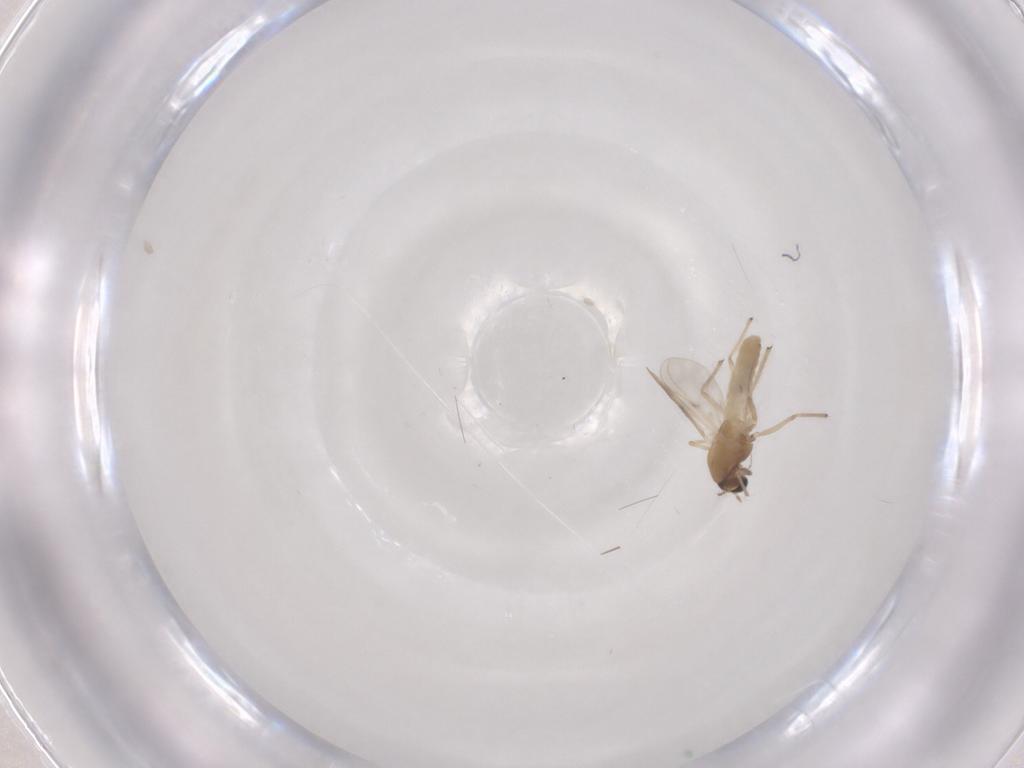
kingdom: Animalia
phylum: Arthropoda
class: Insecta
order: Diptera
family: Chironomidae
